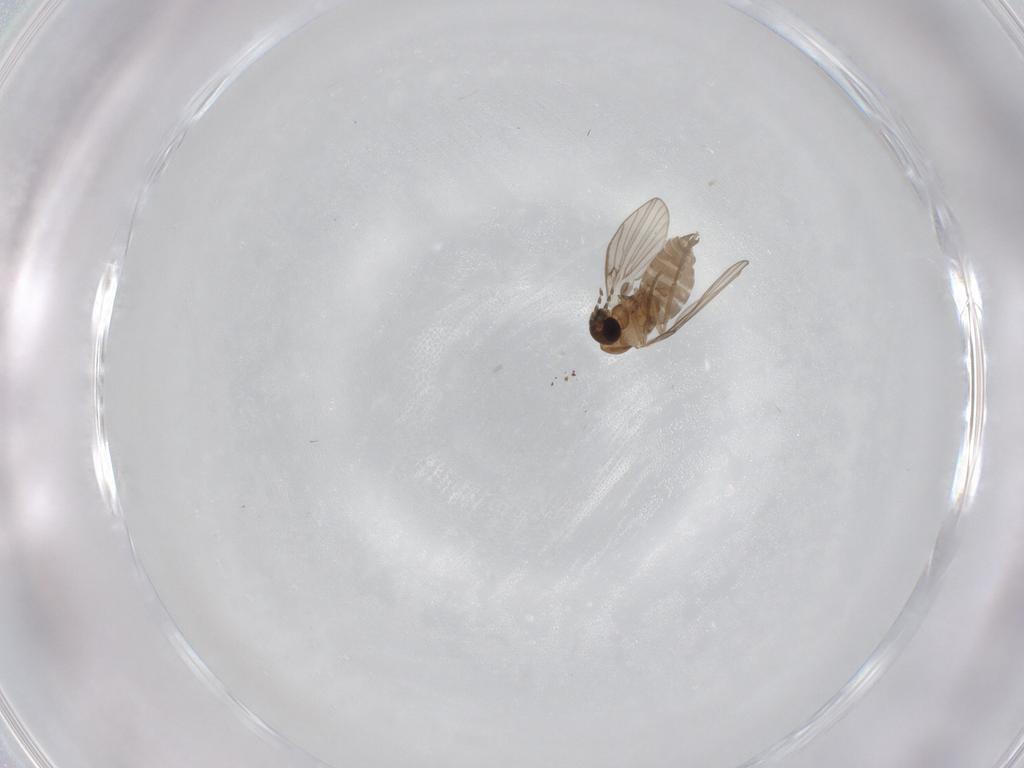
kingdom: Animalia
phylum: Arthropoda
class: Insecta
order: Diptera
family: Psychodidae
